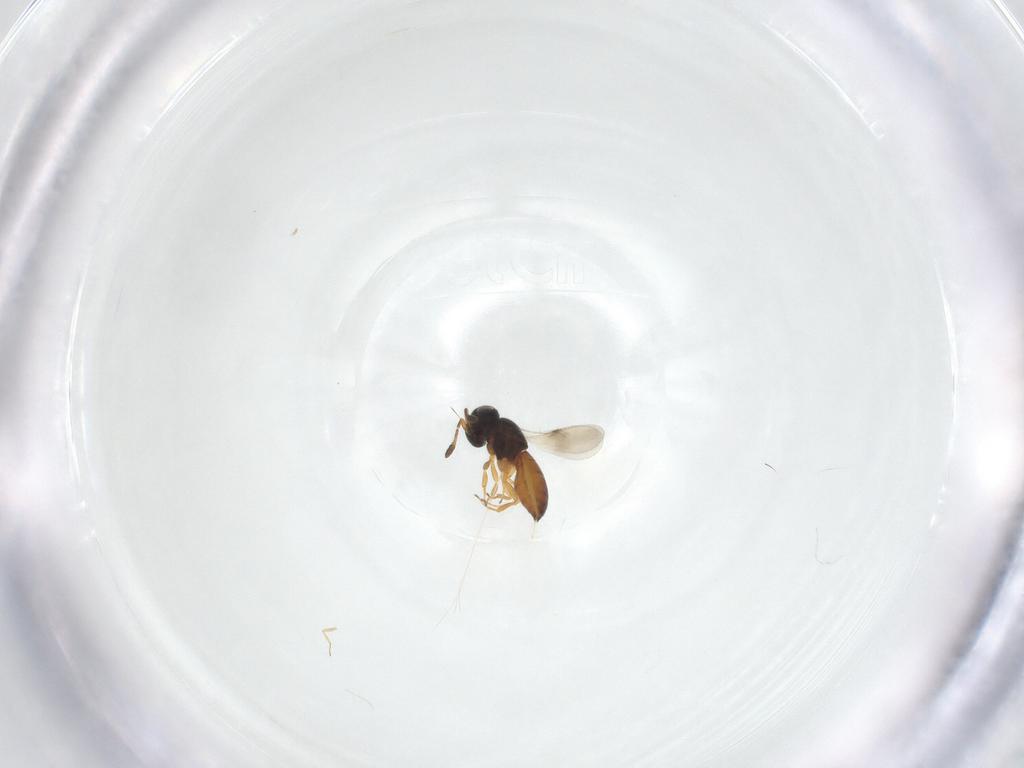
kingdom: Animalia
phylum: Arthropoda
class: Insecta
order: Hymenoptera
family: Scelionidae
